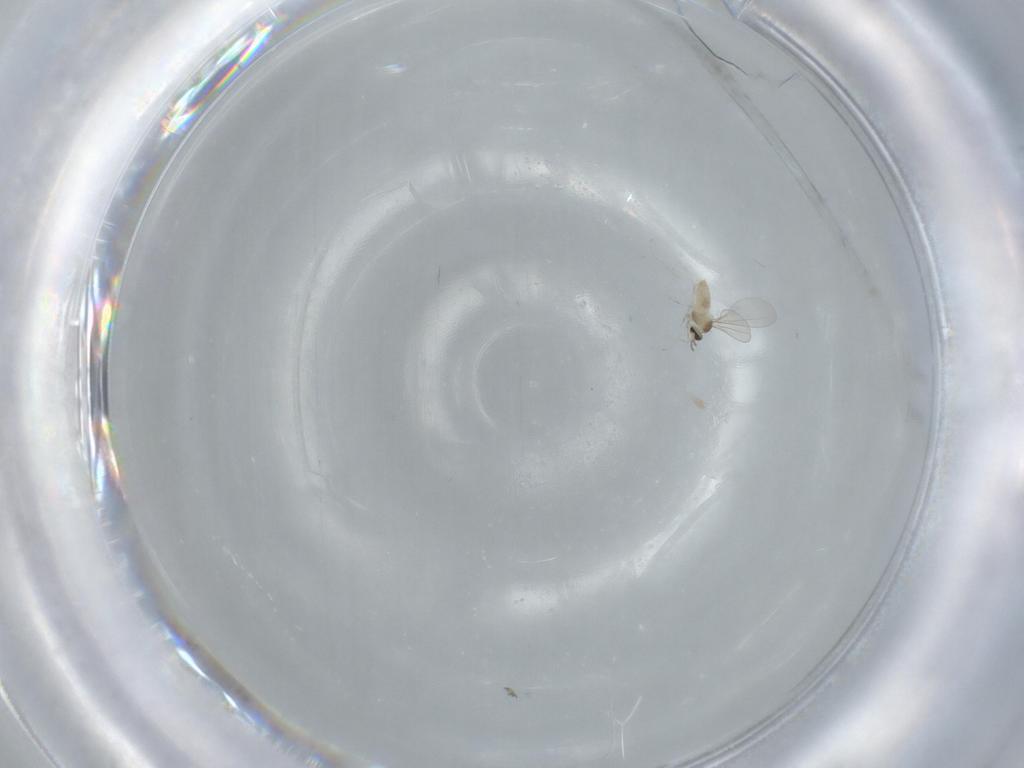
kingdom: Animalia
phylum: Arthropoda
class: Insecta
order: Diptera
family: Cecidomyiidae
